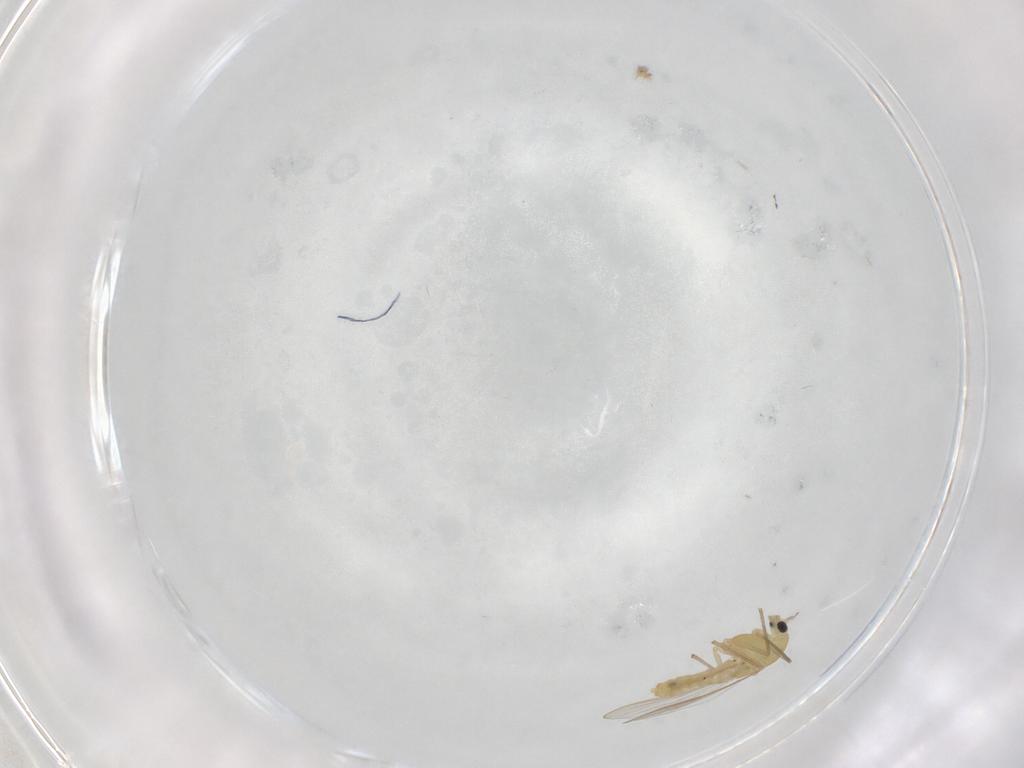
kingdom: Animalia
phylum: Arthropoda
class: Insecta
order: Diptera
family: Chironomidae
